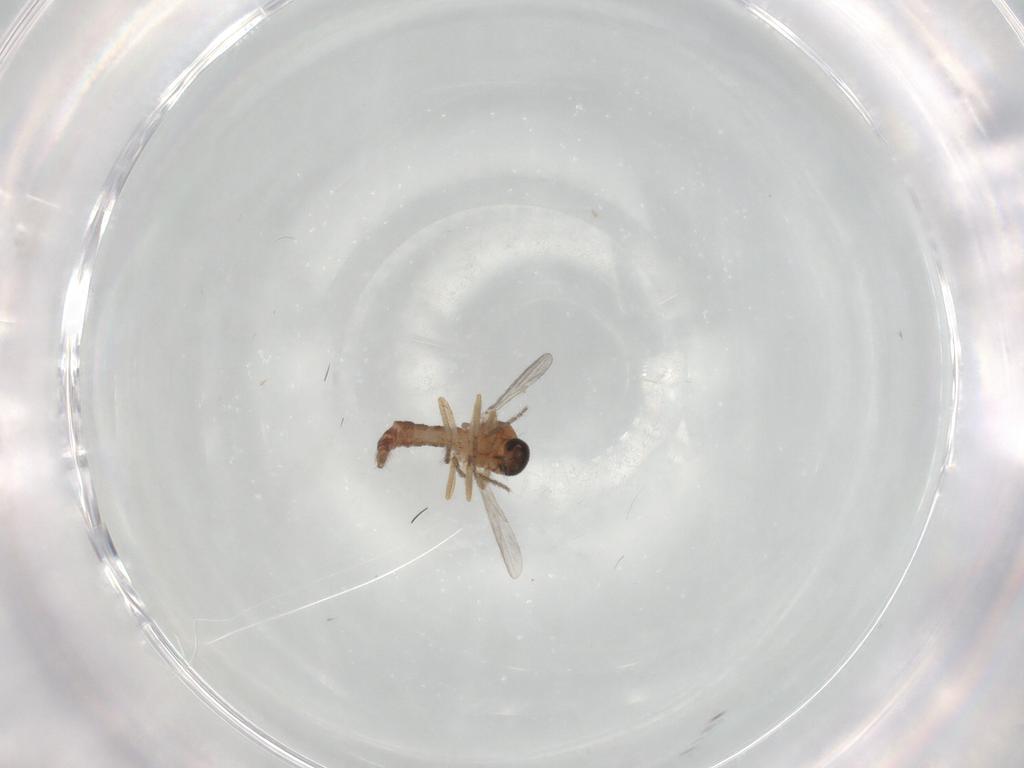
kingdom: Animalia
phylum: Arthropoda
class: Insecta
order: Diptera
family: Ceratopogonidae
